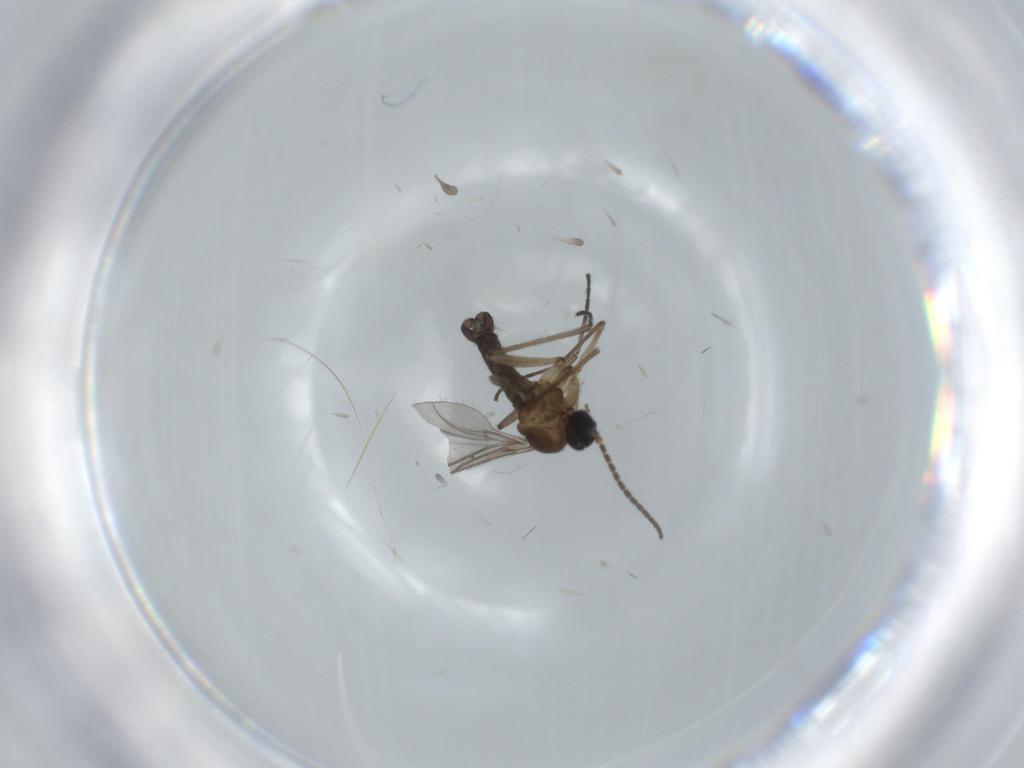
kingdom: Animalia
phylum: Arthropoda
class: Insecta
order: Diptera
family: Sciaridae
